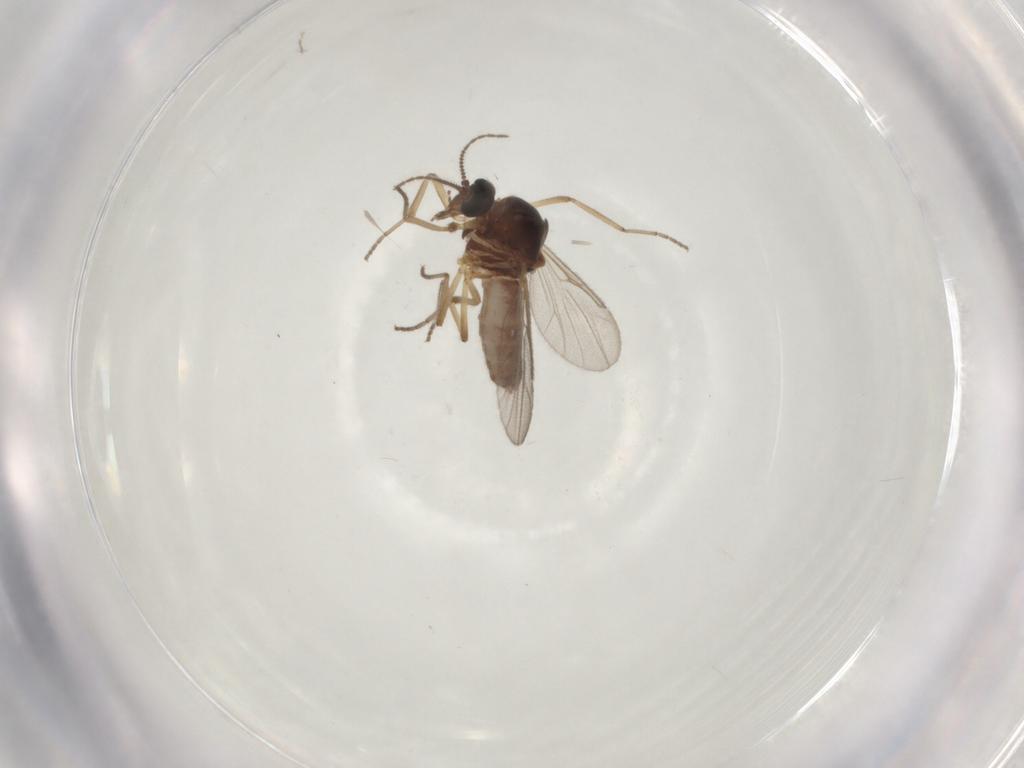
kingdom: Animalia
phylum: Arthropoda
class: Insecta
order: Diptera
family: Ceratopogonidae
